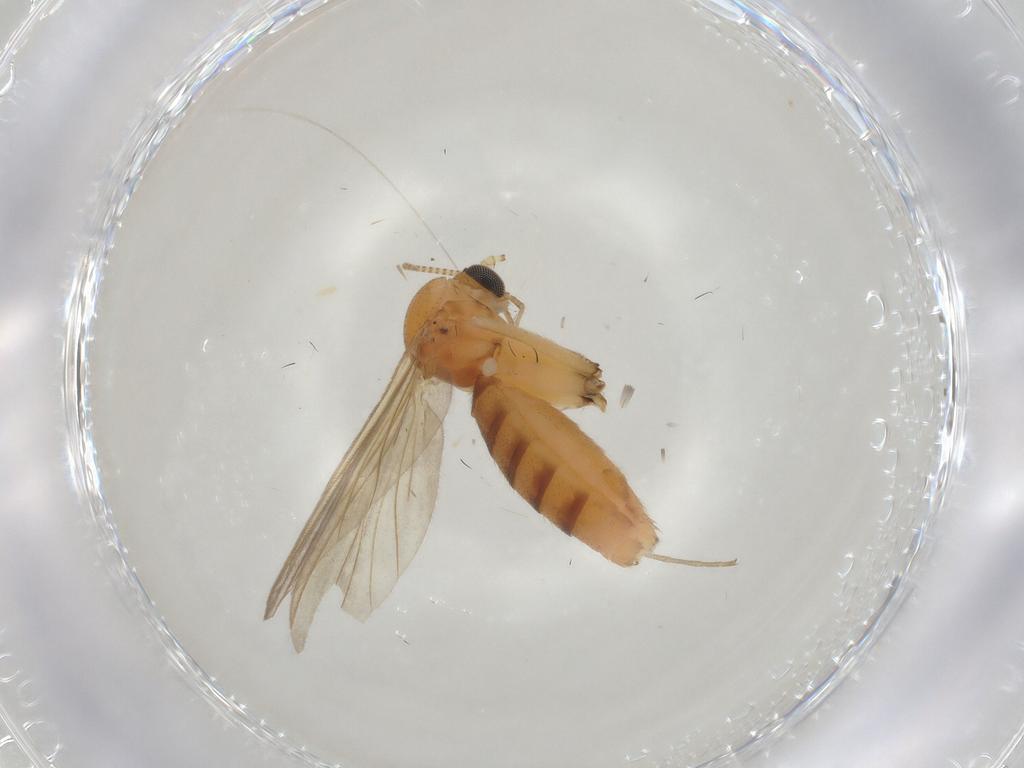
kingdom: Animalia
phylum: Arthropoda
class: Insecta
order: Diptera
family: Mycetophilidae
